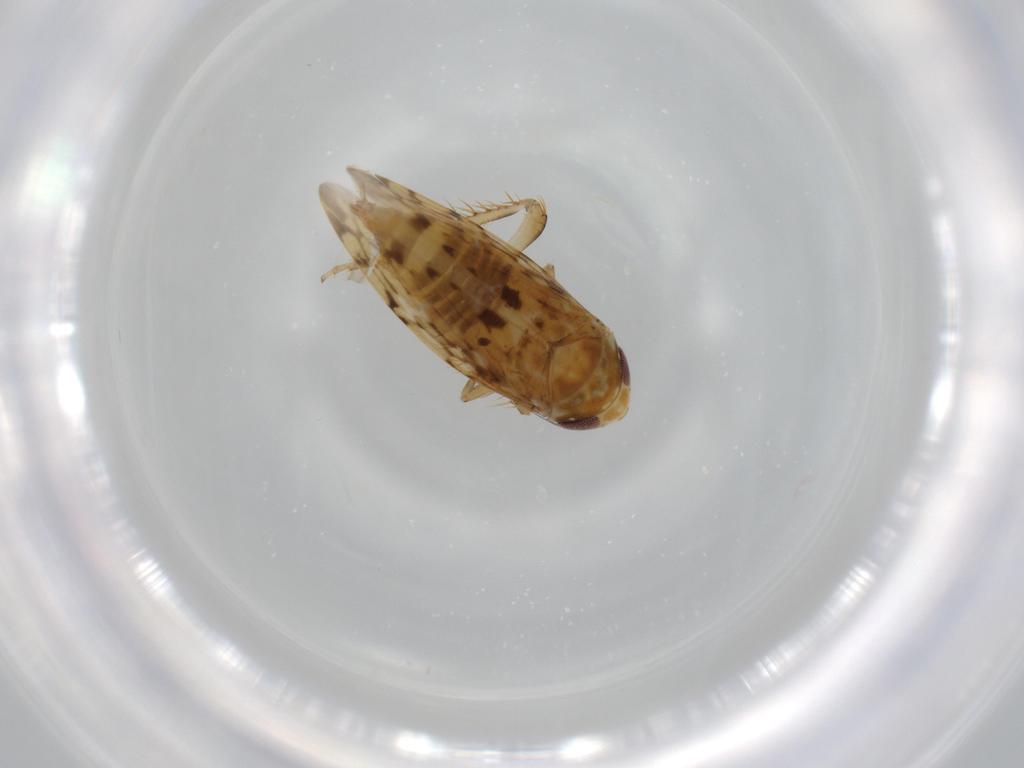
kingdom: Animalia
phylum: Arthropoda
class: Insecta
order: Hemiptera
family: Cicadellidae
